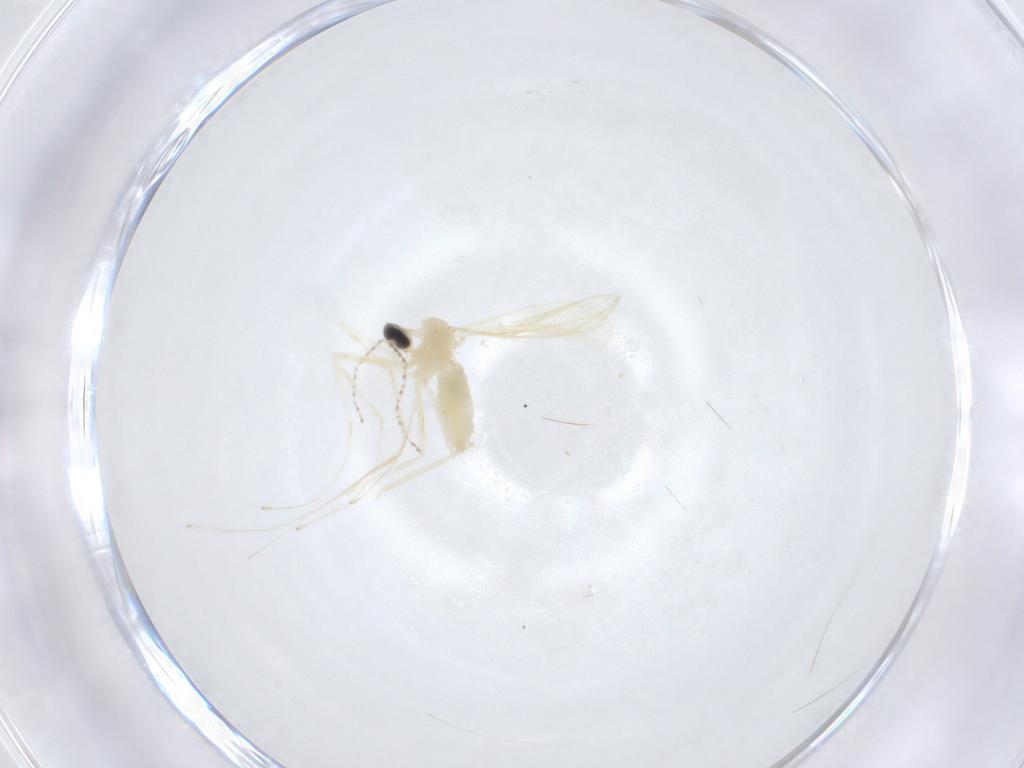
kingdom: Animalia
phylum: Arthropoda
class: Insecta
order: Diptera
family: Cecidomyiidae
